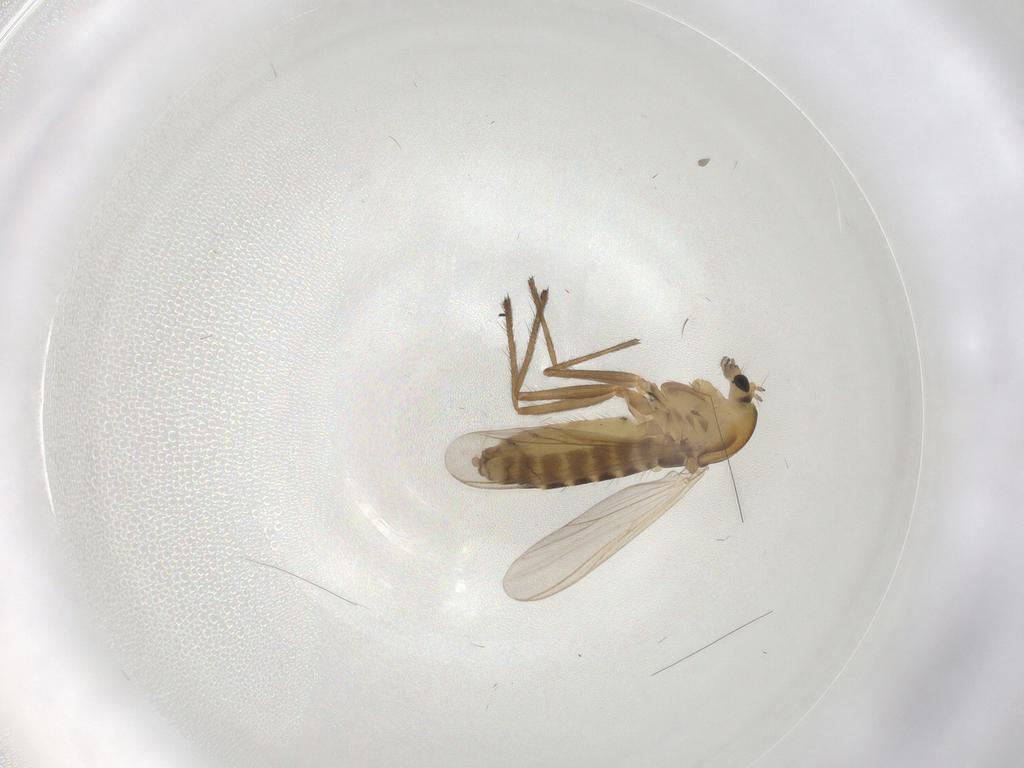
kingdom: Animalia
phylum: Arthropoda
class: Insecta
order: Diptera
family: Chironomidae
